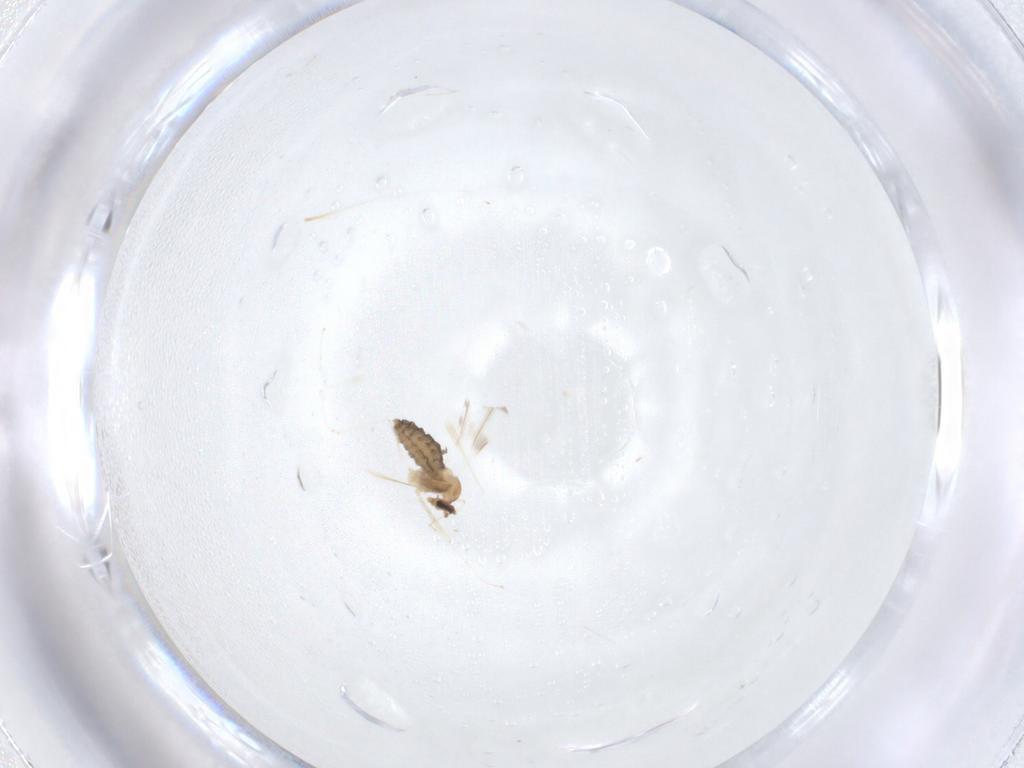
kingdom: Animalia
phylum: Arthropoda
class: Insecta
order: Diptera
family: Cecidomyiidae
